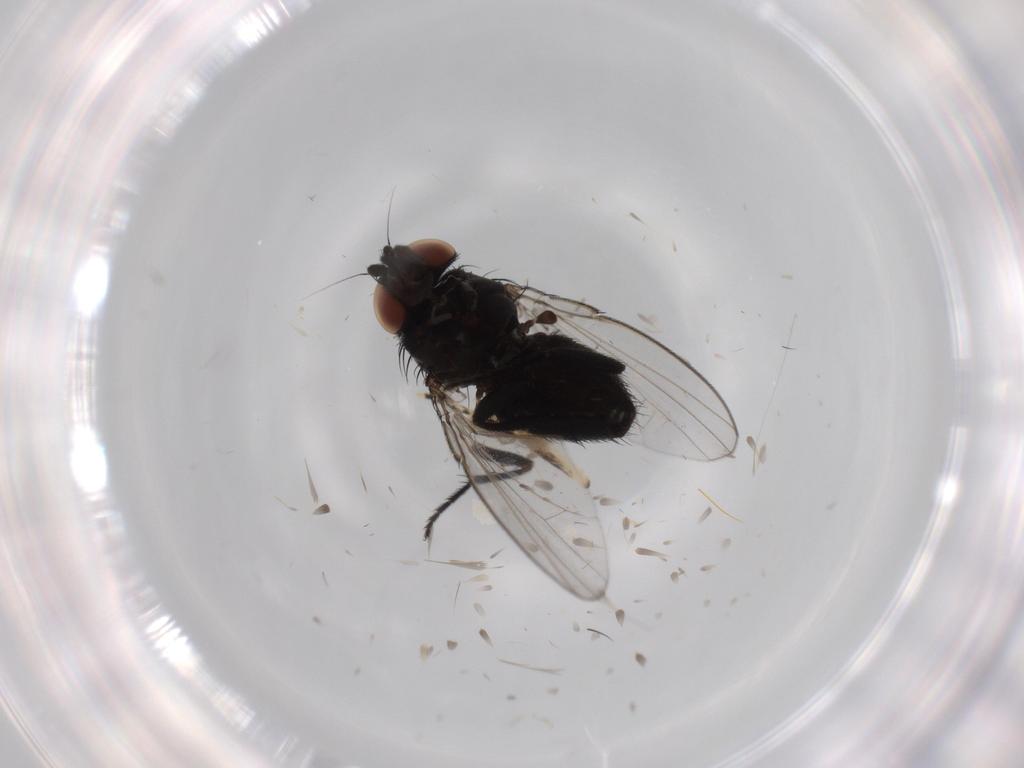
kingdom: Animalia
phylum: Arthropoda
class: Insecta
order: Diptera
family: Milichiidae
